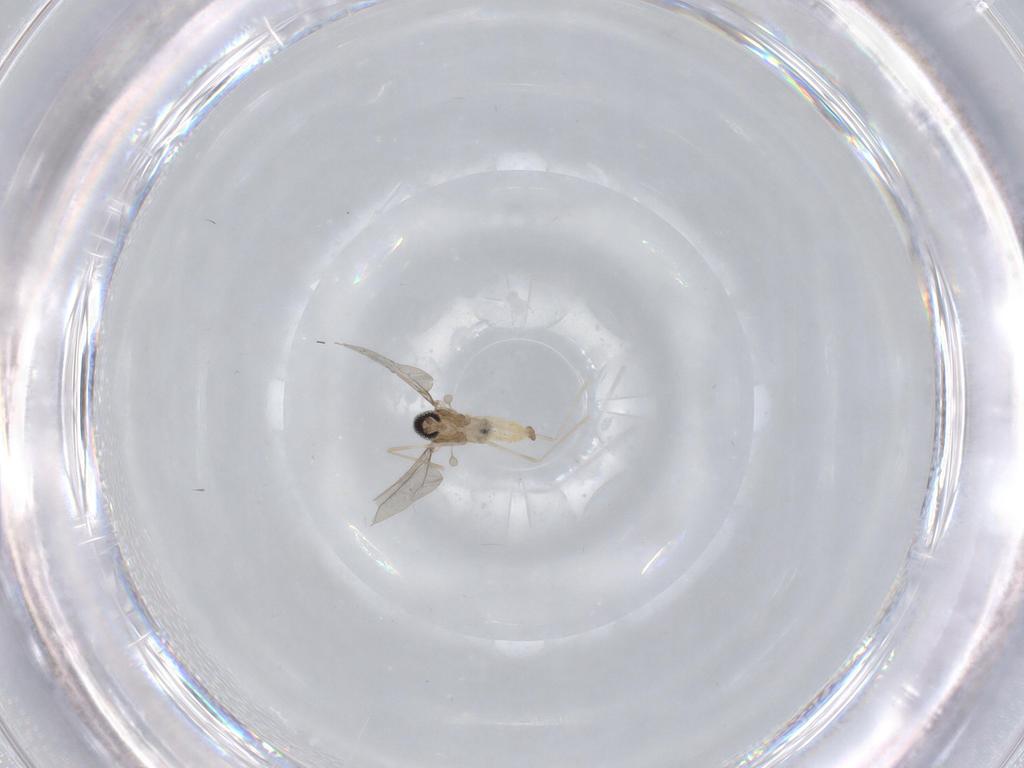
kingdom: Animalia
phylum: Arthropoda
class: Insecta
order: Diptera
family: Cecidomyiidae
